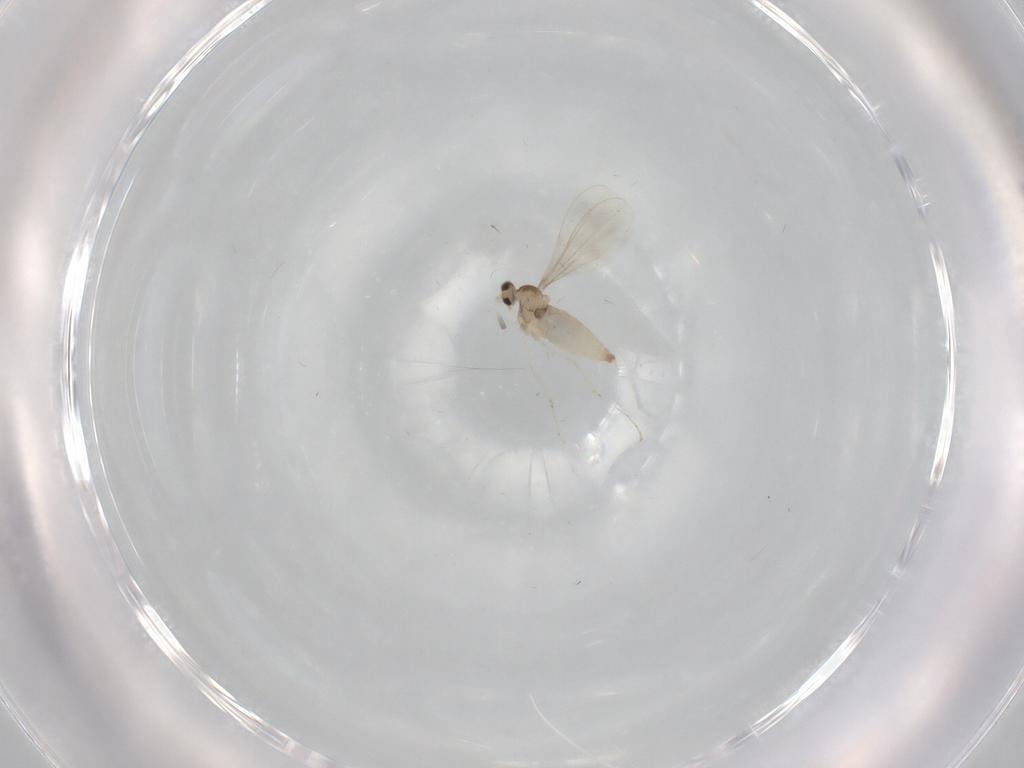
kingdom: Animalia
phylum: Arthropoda
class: Insecta
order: Diptera
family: Cecidomyiidae
